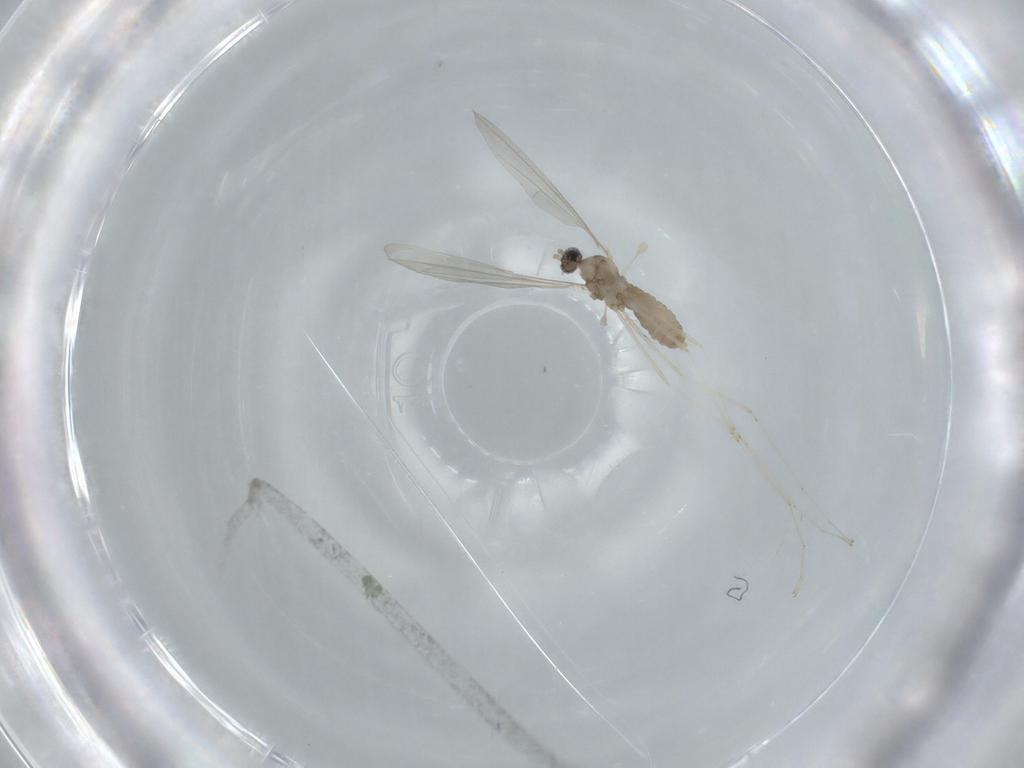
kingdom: Animalia
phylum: Arthropoda
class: Insecta
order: Diptera
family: Cecidomyiidae
